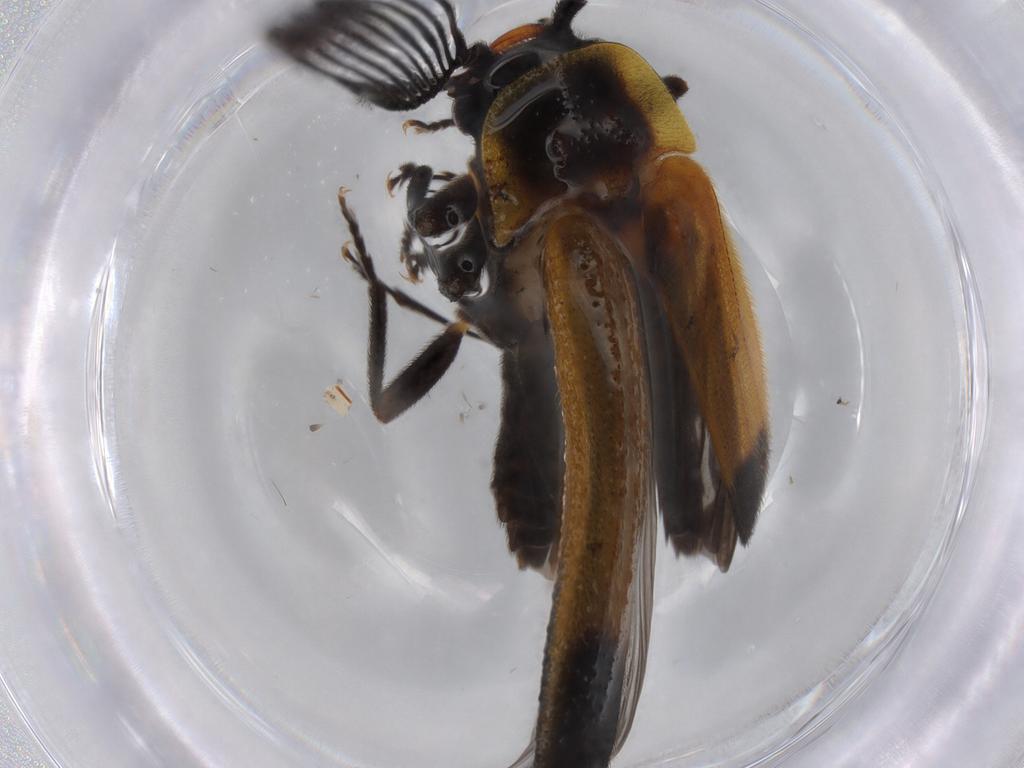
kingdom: Animalia
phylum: Arthropoda
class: Insecta
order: Coleoptera
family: Lampyridae
